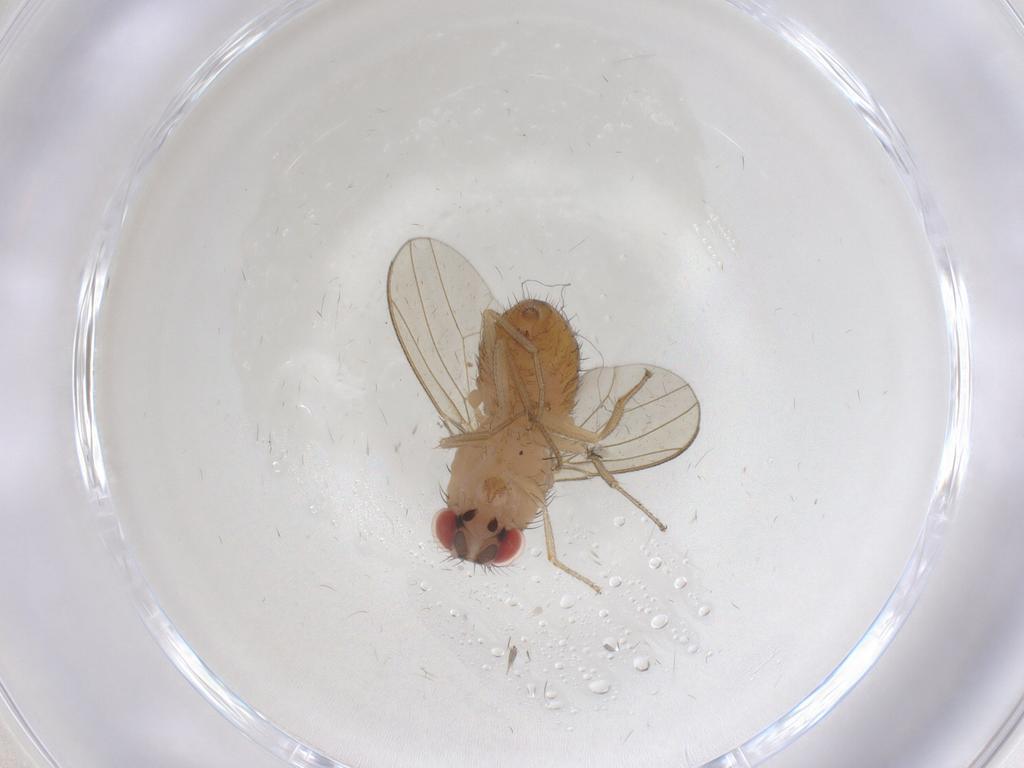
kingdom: Animalia
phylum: Arthropoda
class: Insecta
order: Diptera
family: Drosophilidae
